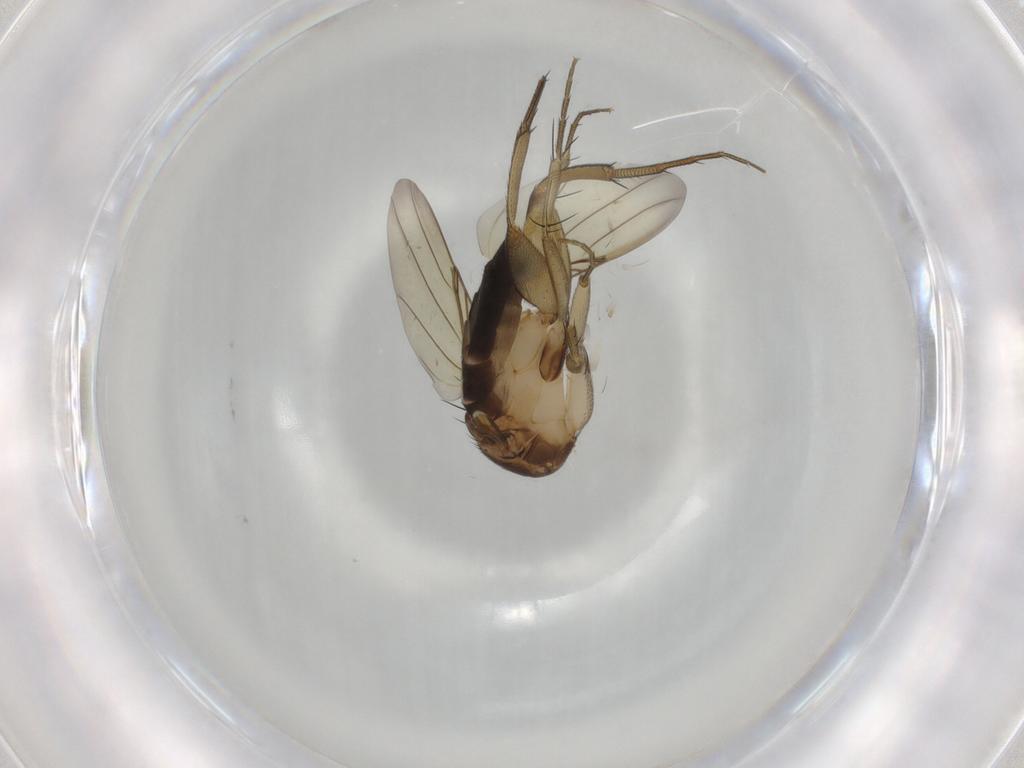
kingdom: Animalia
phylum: Arthropoda
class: Insecta
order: Diptera
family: Phoridae
